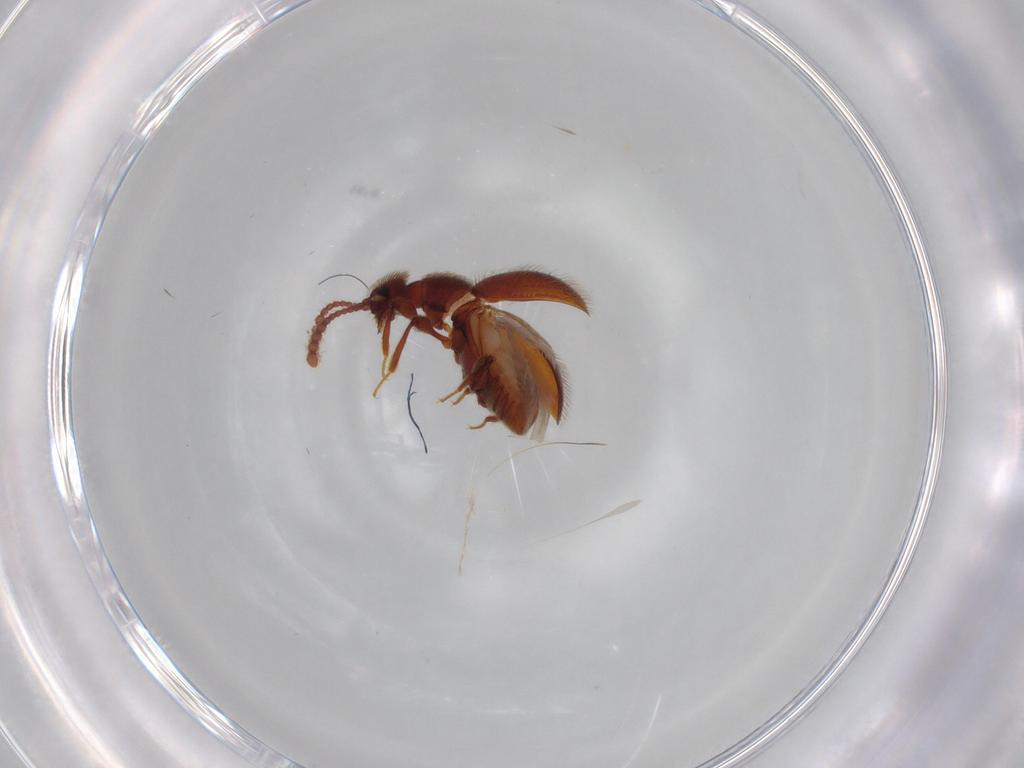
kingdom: Animalia
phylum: Arthropoda
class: Insecta
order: Coleoptera
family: Staphylinidae
